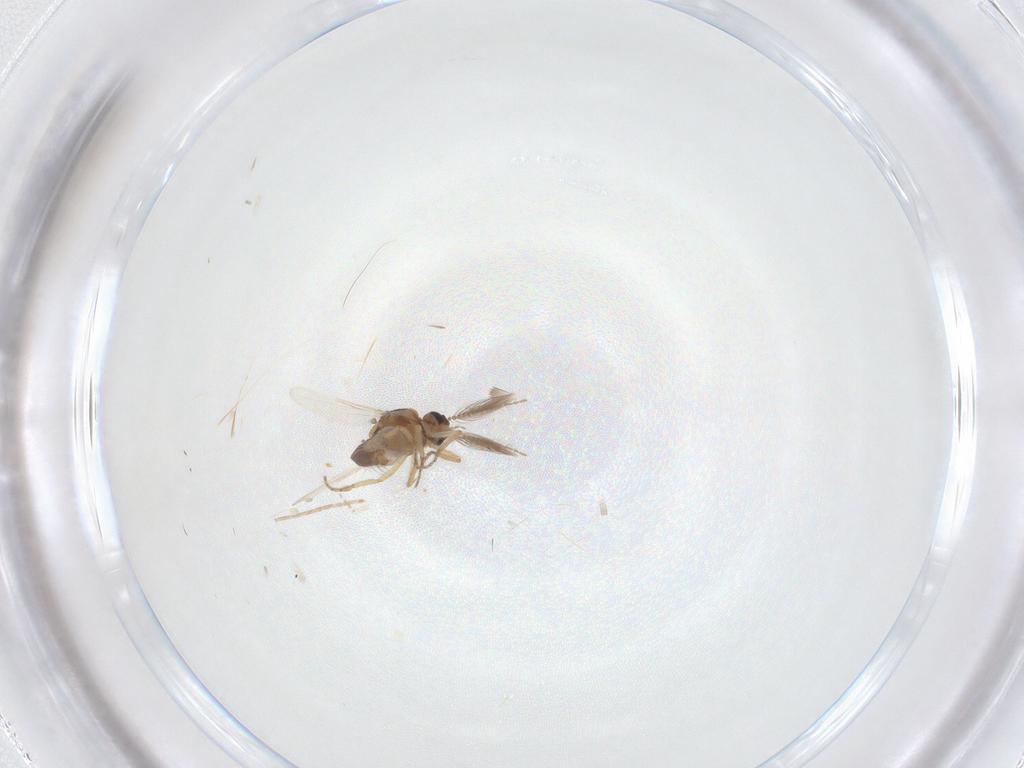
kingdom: Animalia
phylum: Arthropoda
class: Insecta
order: Diptera
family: Ceratopogonidae
